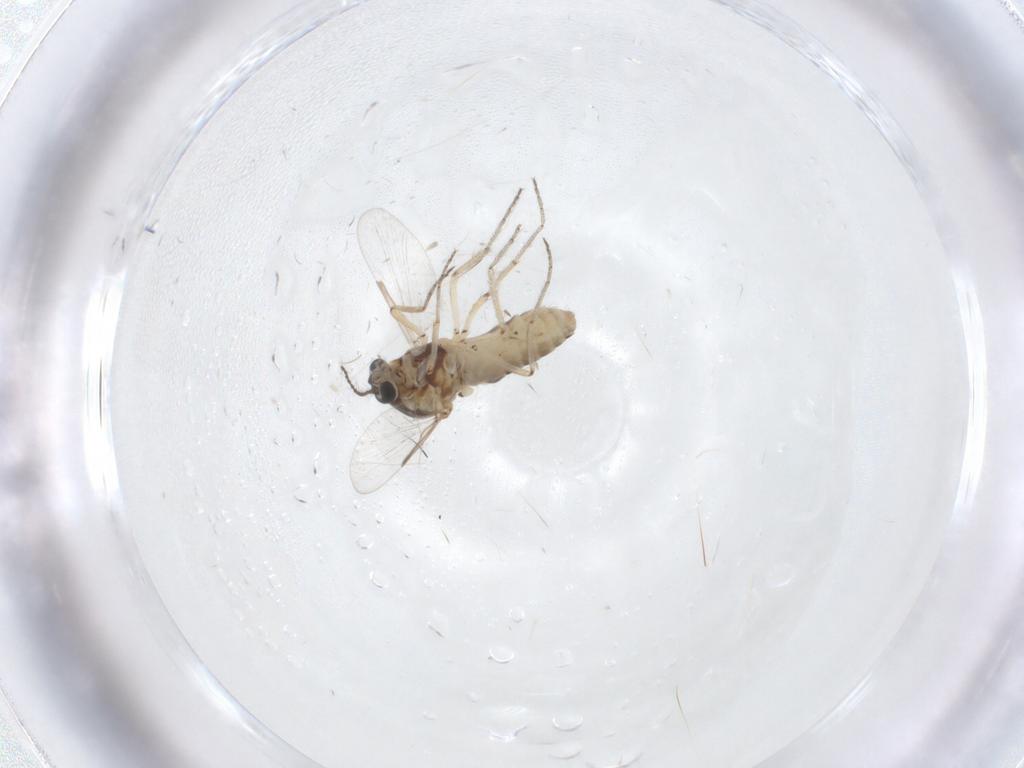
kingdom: Animalia
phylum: Arthropoda
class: Insecta
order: Diptera
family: Ceratopogonidae
